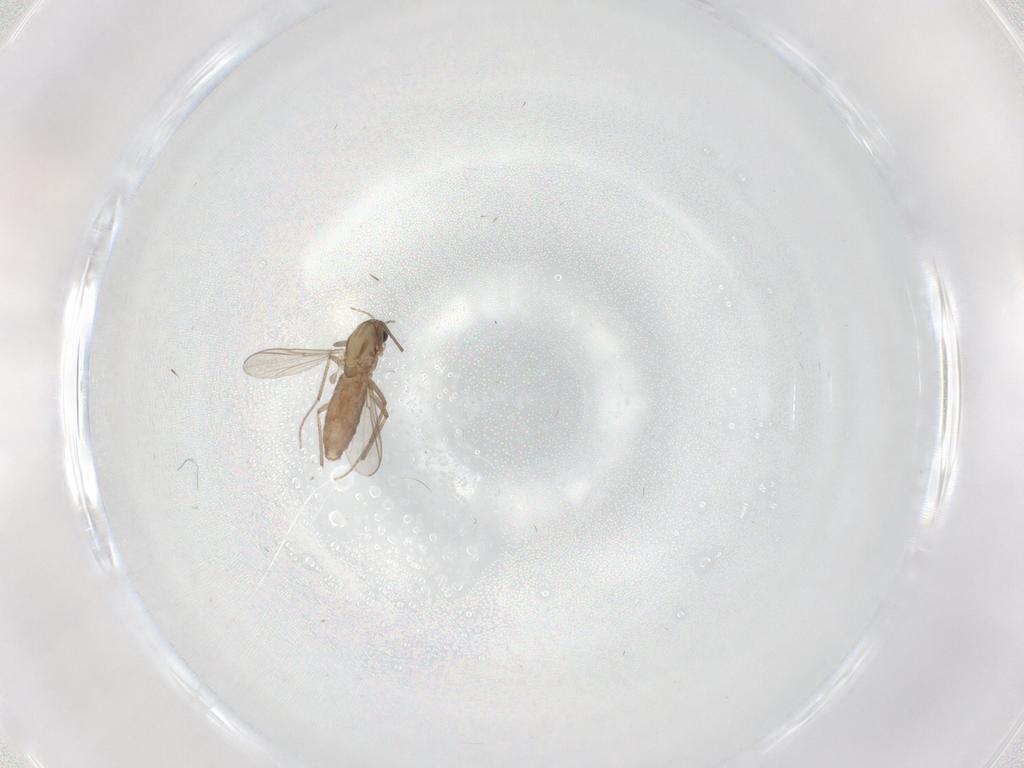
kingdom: Animalia
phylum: Arthropoda
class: Insecta
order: Diptera
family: Chironomidae
